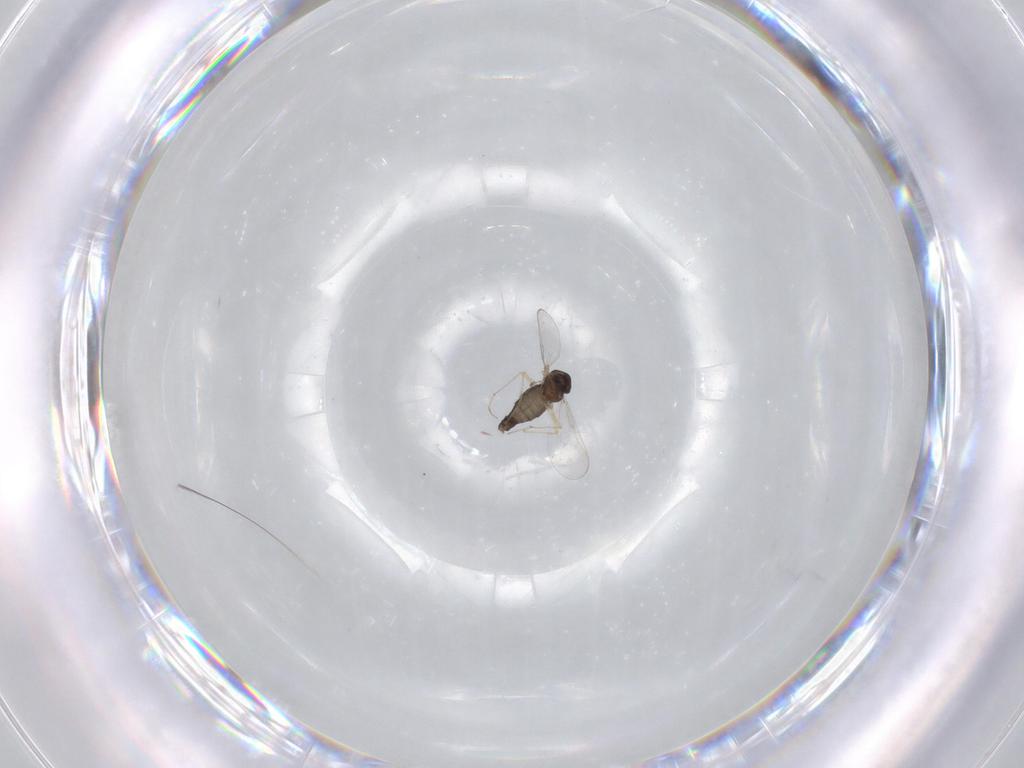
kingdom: Animalia
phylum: Arthropoda
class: Insecta
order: Diptera
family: Chironomidae
